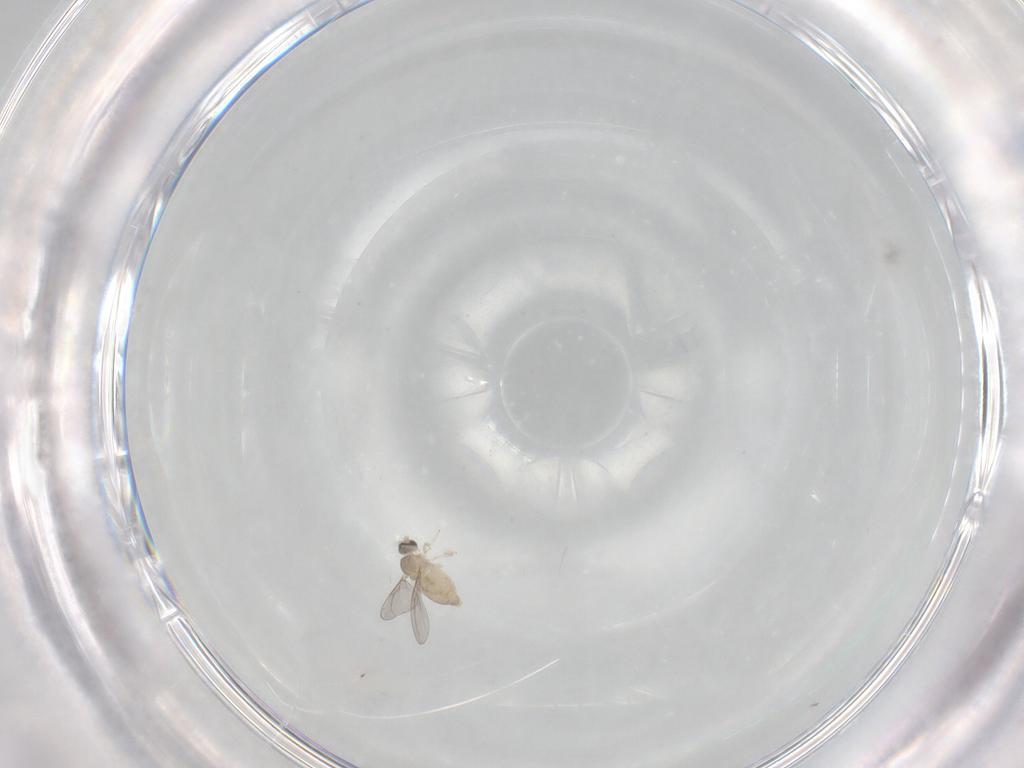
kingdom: Animalia
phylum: Arthropoda
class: Insecta
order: Diptera
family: Cecidomyiidae
